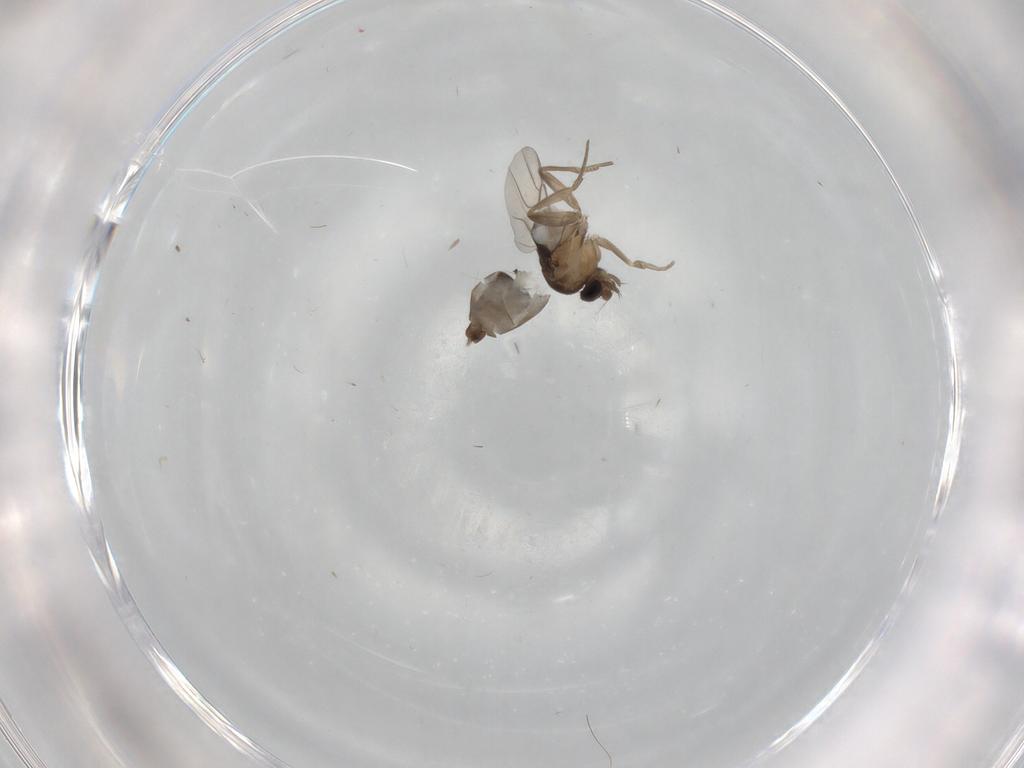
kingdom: Animalia
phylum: Arthropoda
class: Insecta
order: Diptera
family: Phoridae
